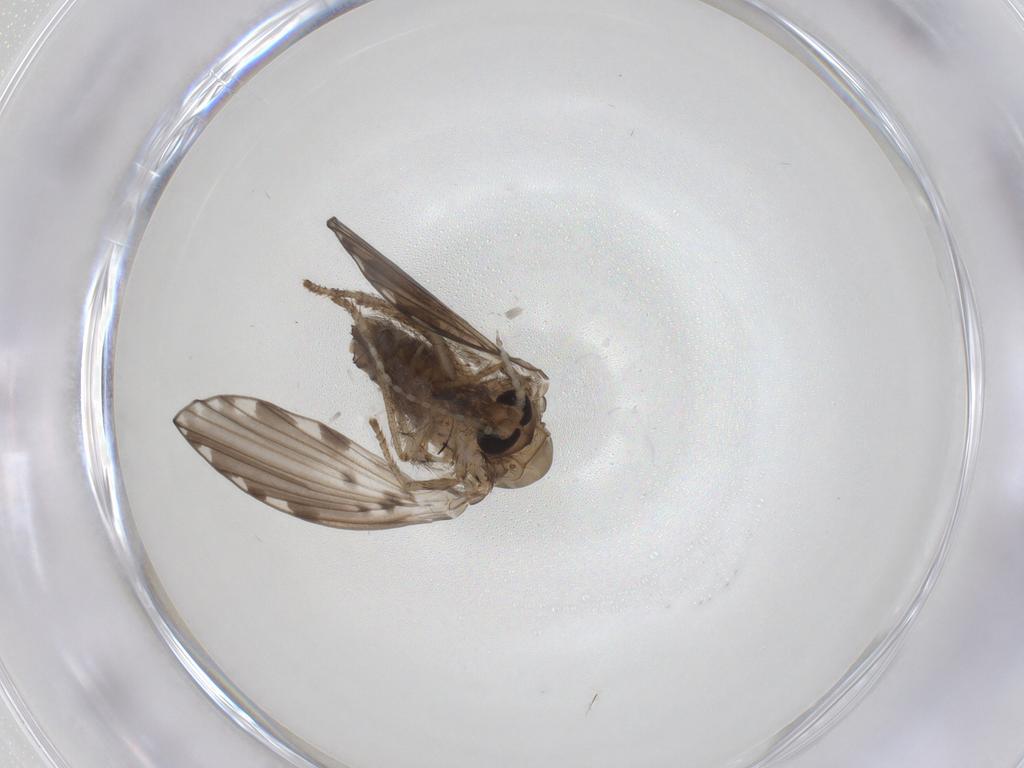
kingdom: Animalia
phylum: Arthropoda
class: Insecta
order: Diptera
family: Psychodidae
